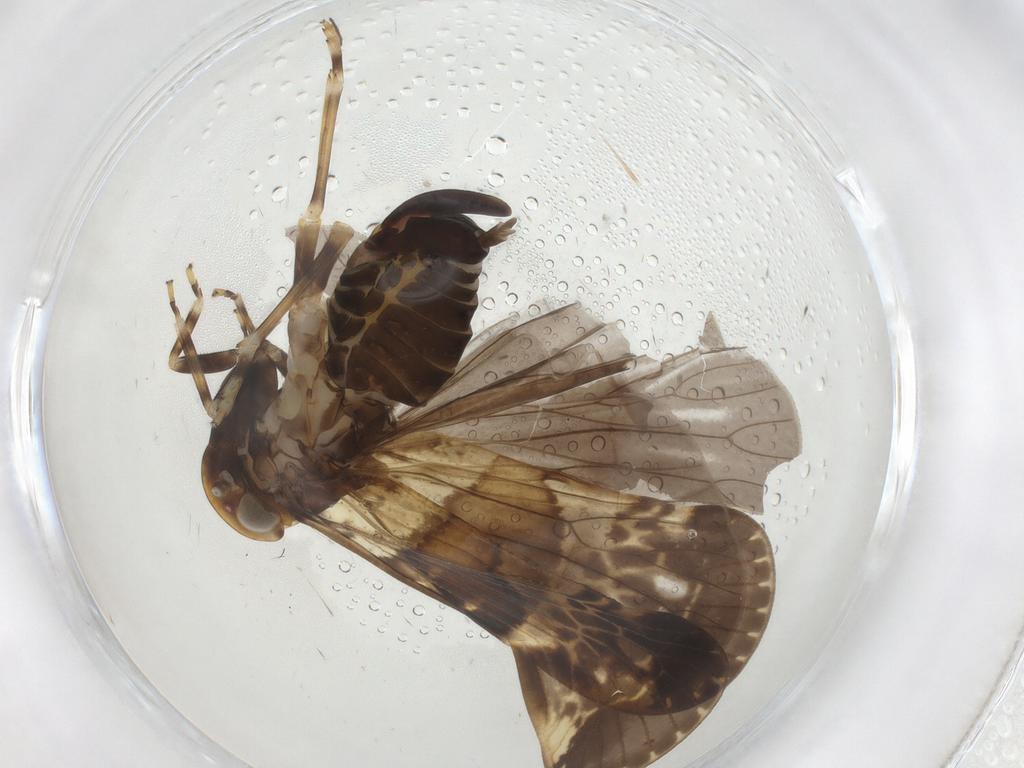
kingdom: Animalia
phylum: Arthropoda
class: Insecta
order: Hemiptera
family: Cixiidae
